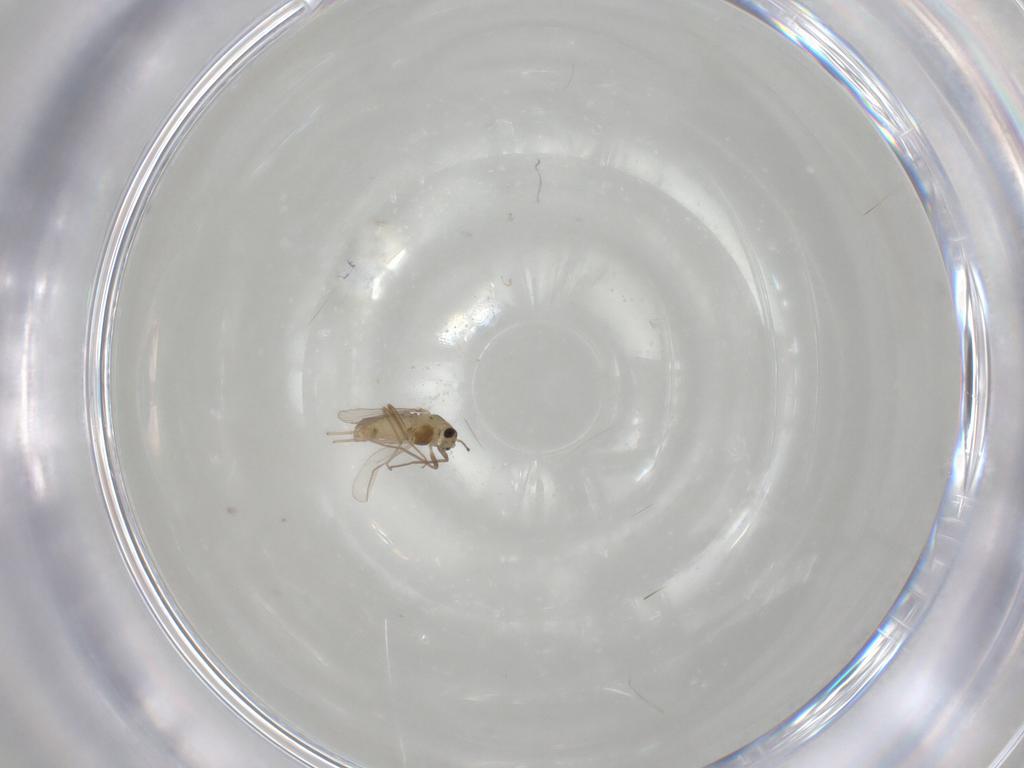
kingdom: Animalia
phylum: Arthropoda
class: Insecta
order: Diptera
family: Chironomidae
